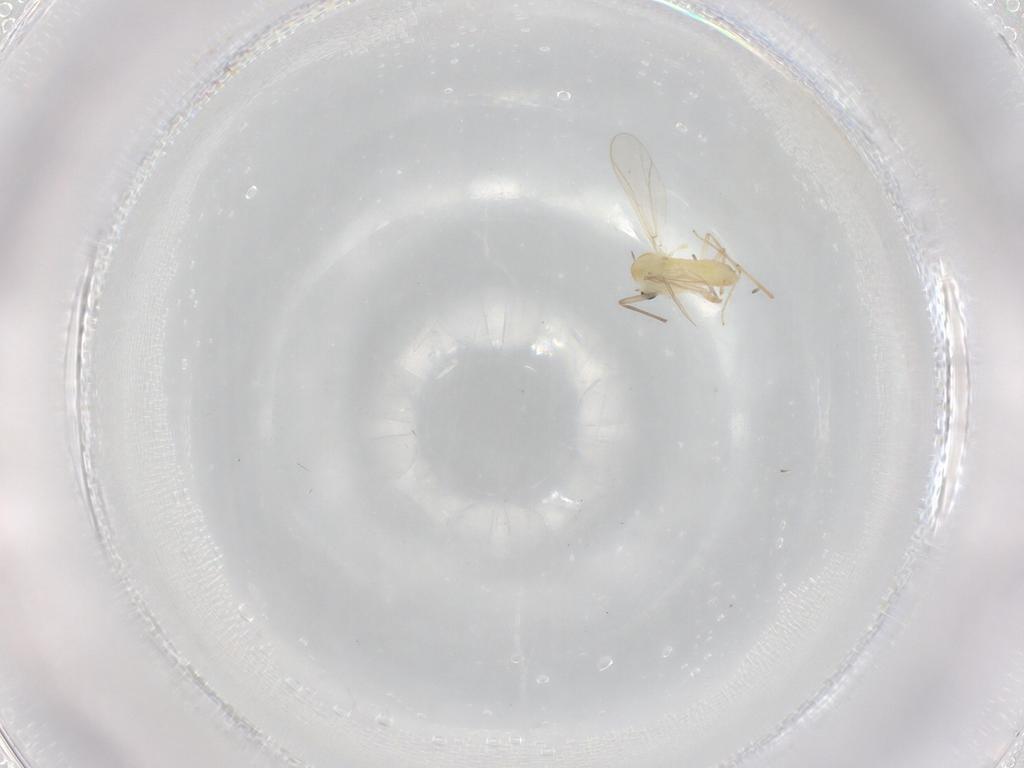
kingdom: Animalia
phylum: Arthropoda
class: Insecta
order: Diptera
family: Chironomidae
